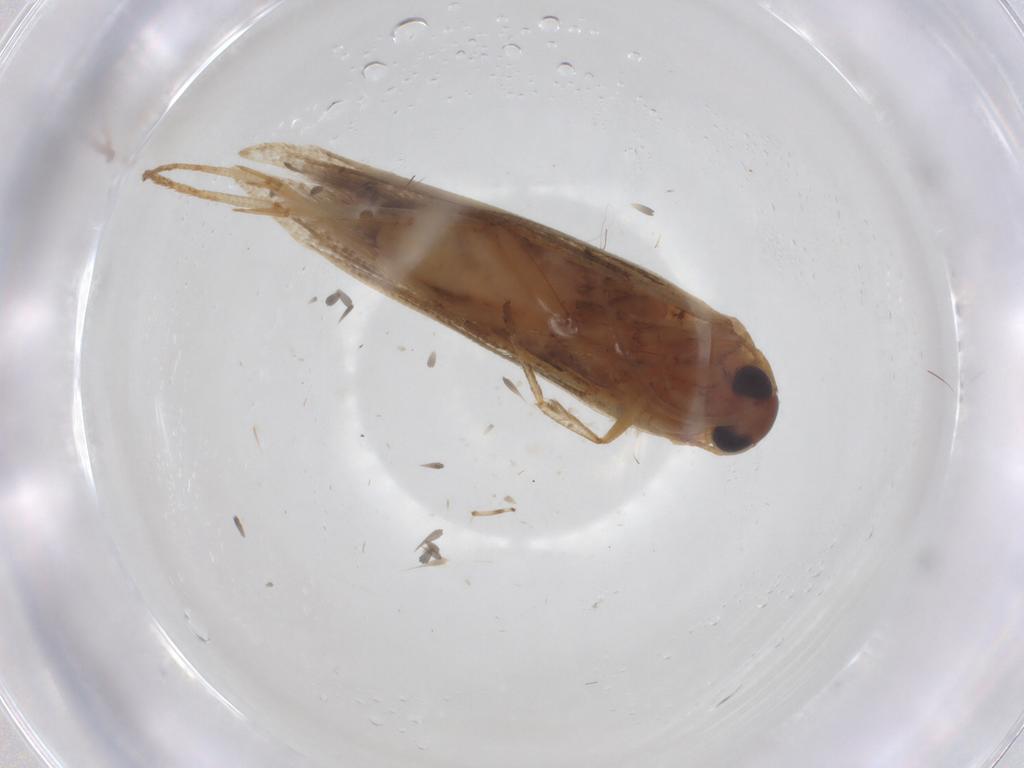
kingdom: Animalia
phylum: Arthropoda
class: Insecta
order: Lepidoptera
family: Blastobasidae
